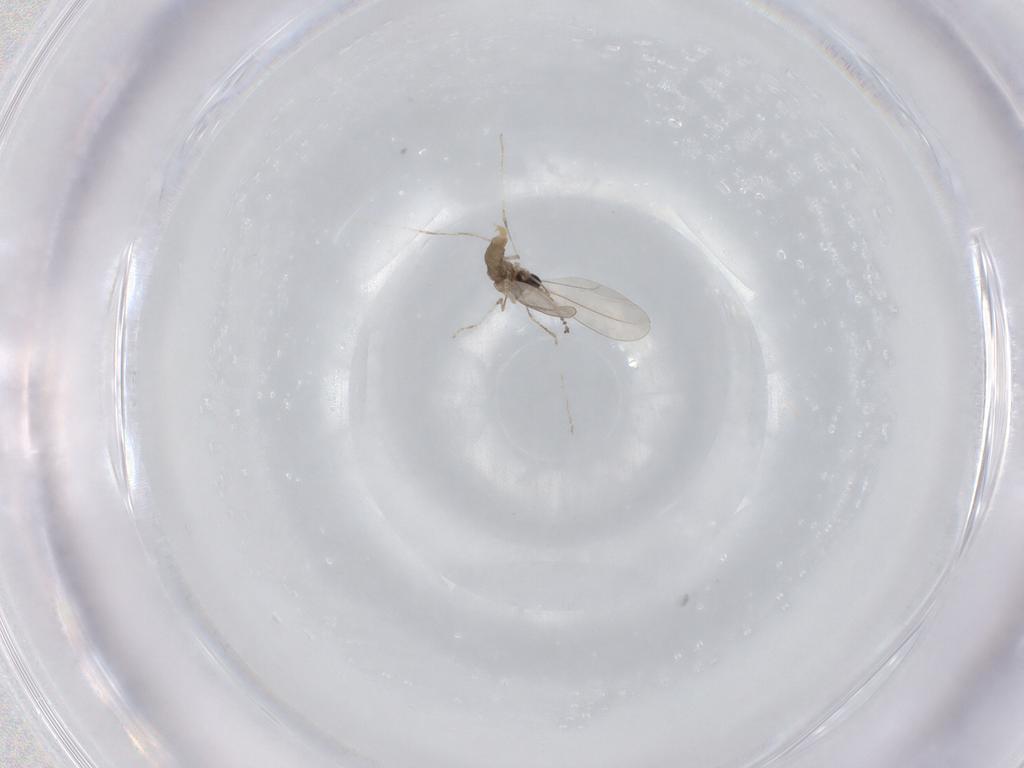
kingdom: Animalia
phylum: Arthropoda
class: Insecta
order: Diptera
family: Cecidomyiidae
